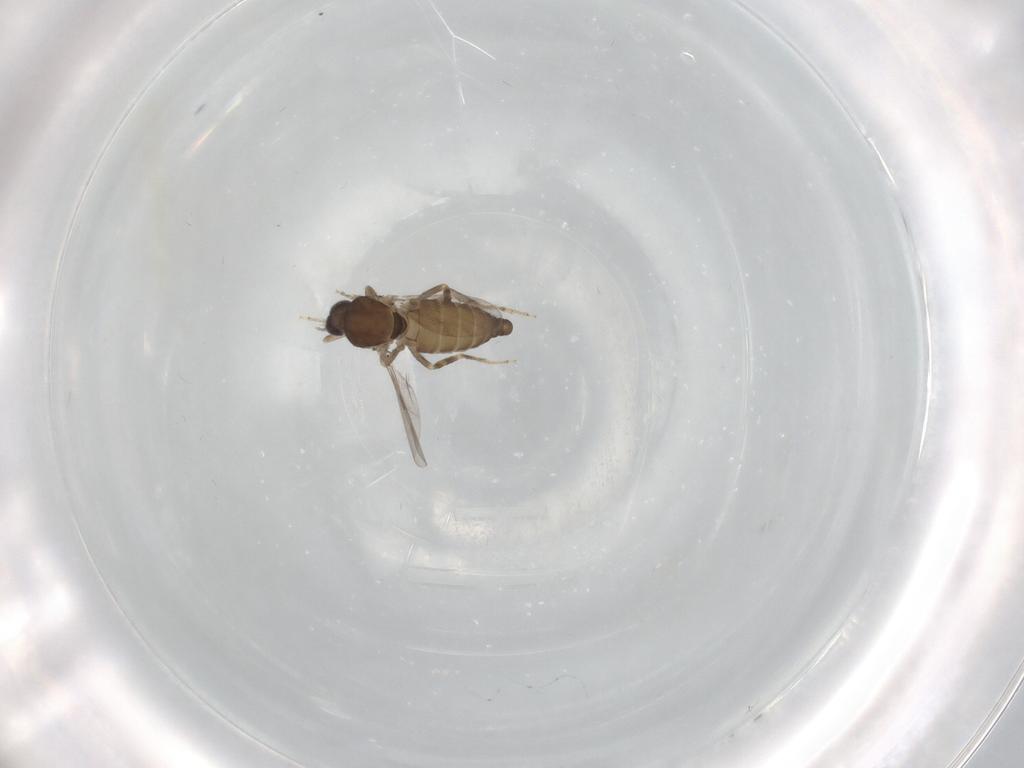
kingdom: Animalia
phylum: Arthropoda
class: Insecta
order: Diptera
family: Ceratopogonidae
